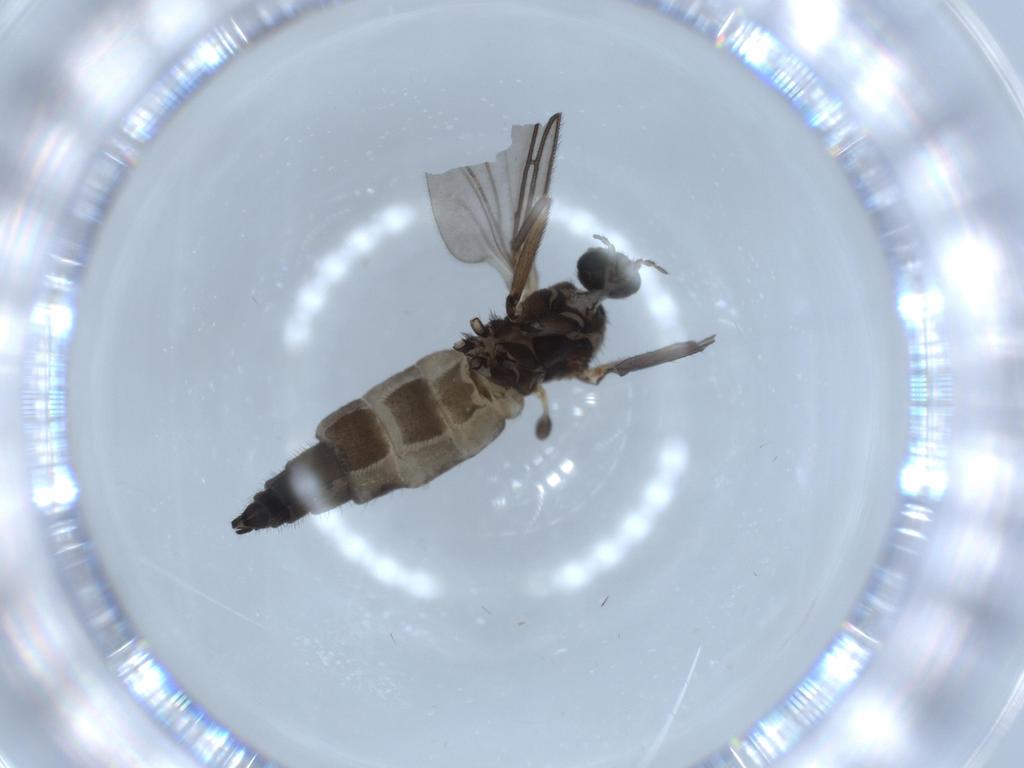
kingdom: Animalia
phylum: Arthropoda
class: Insecta
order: Diptera
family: Sciaridae
